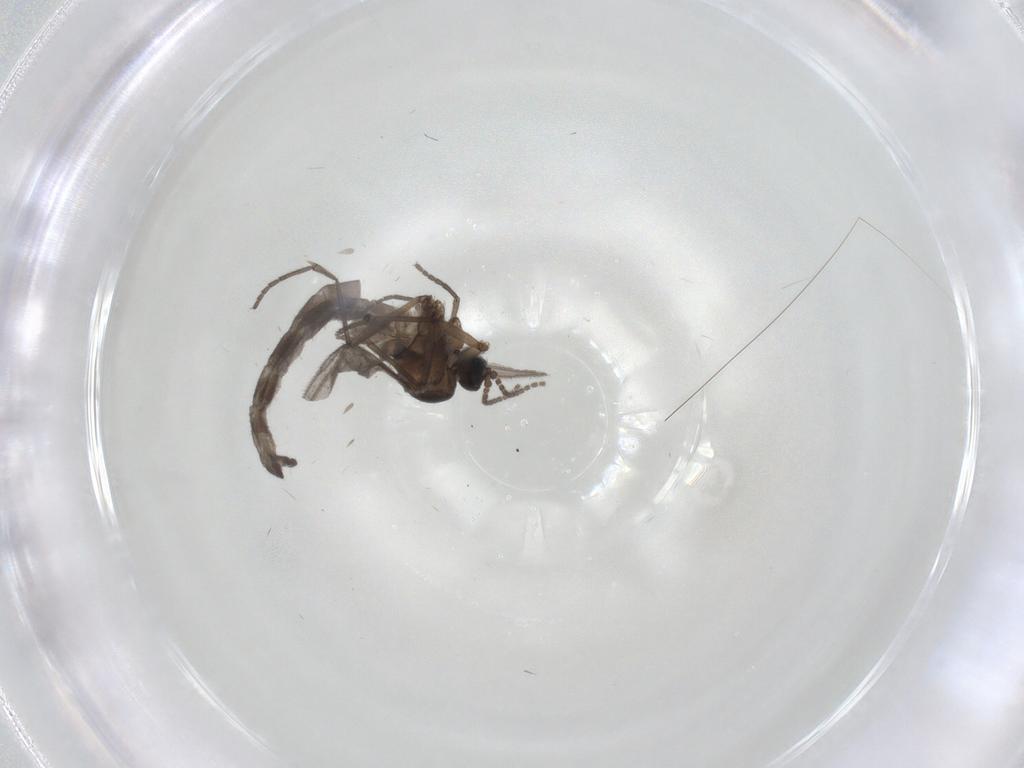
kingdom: Animalia
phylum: Arthropoda
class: Insecta
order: Diptera
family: Sciaridae
